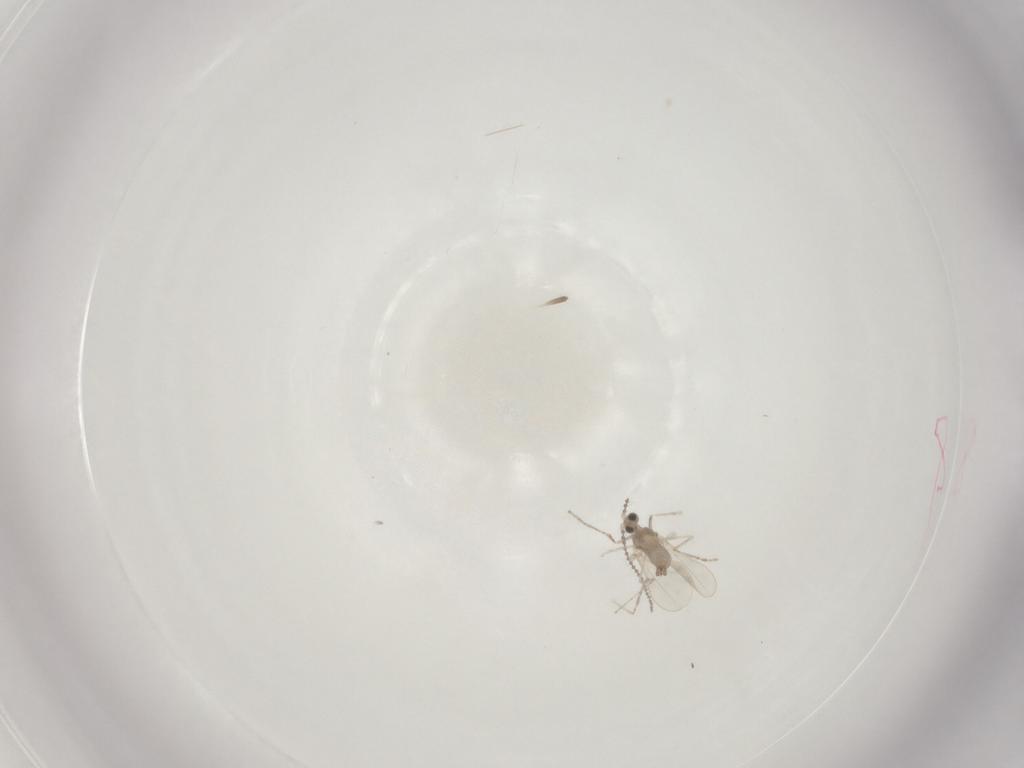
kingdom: Animalia
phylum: Arthropoda
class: Insecta
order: Diptera
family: Cecidomyiidae
